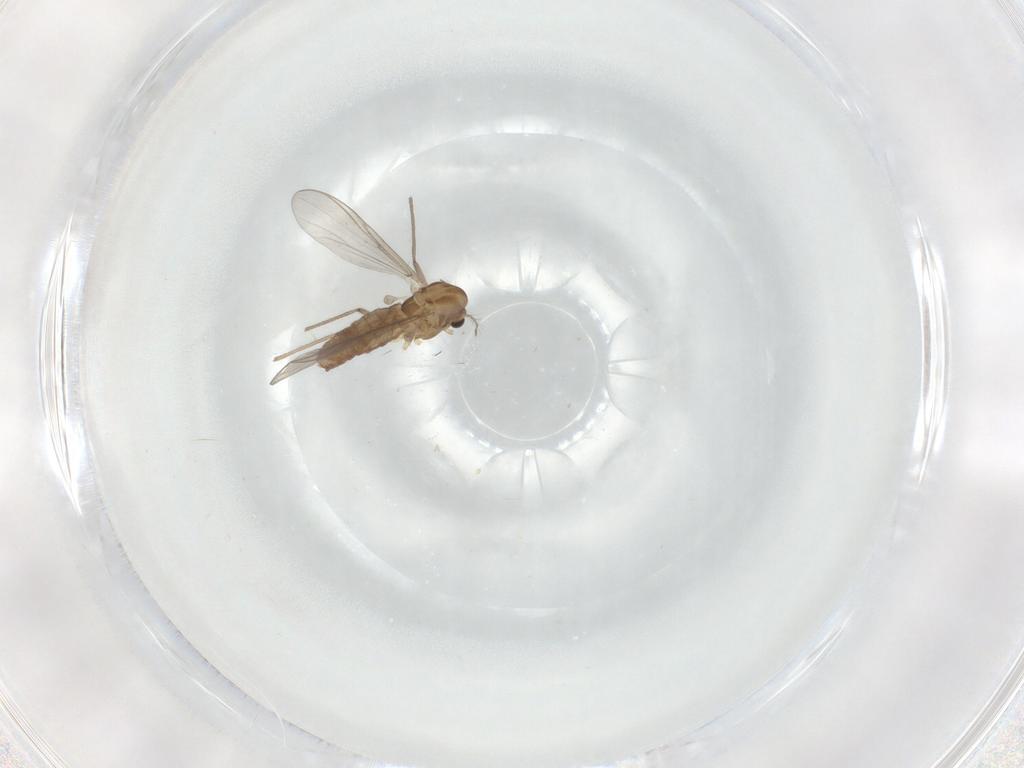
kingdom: Animalia
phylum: Arthropoda
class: Insecta
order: Diptera
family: Chironomidae
